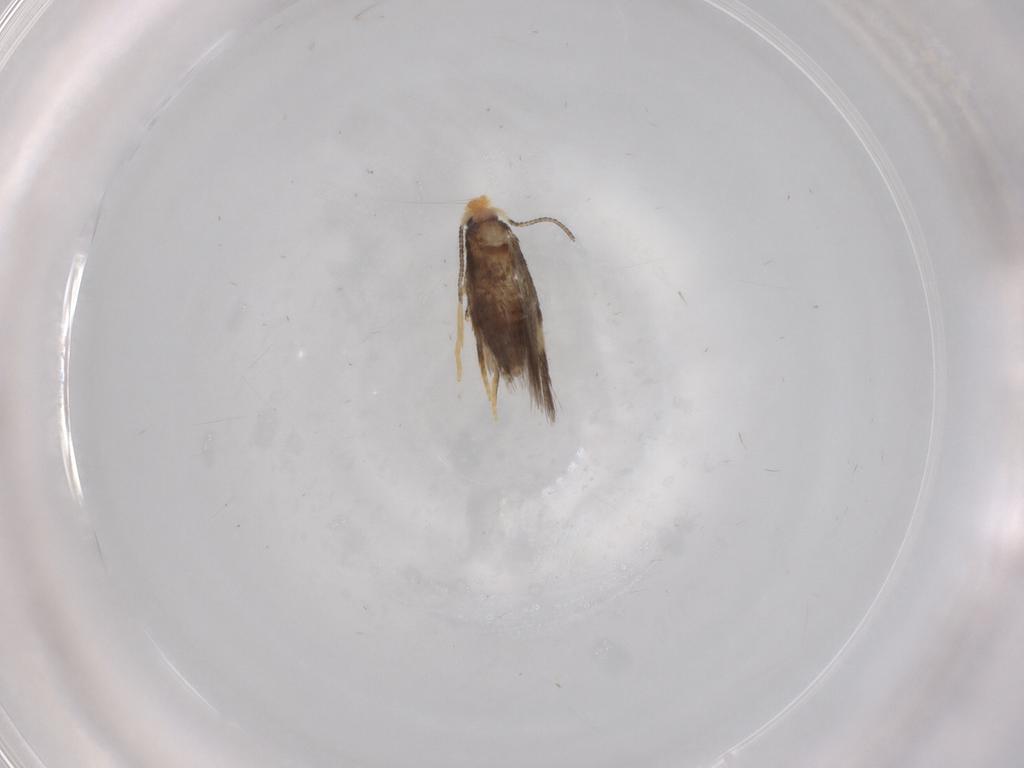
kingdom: Animalia
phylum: Arthropoda
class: Insecta
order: Lepidoptera
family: Nepticulidae
